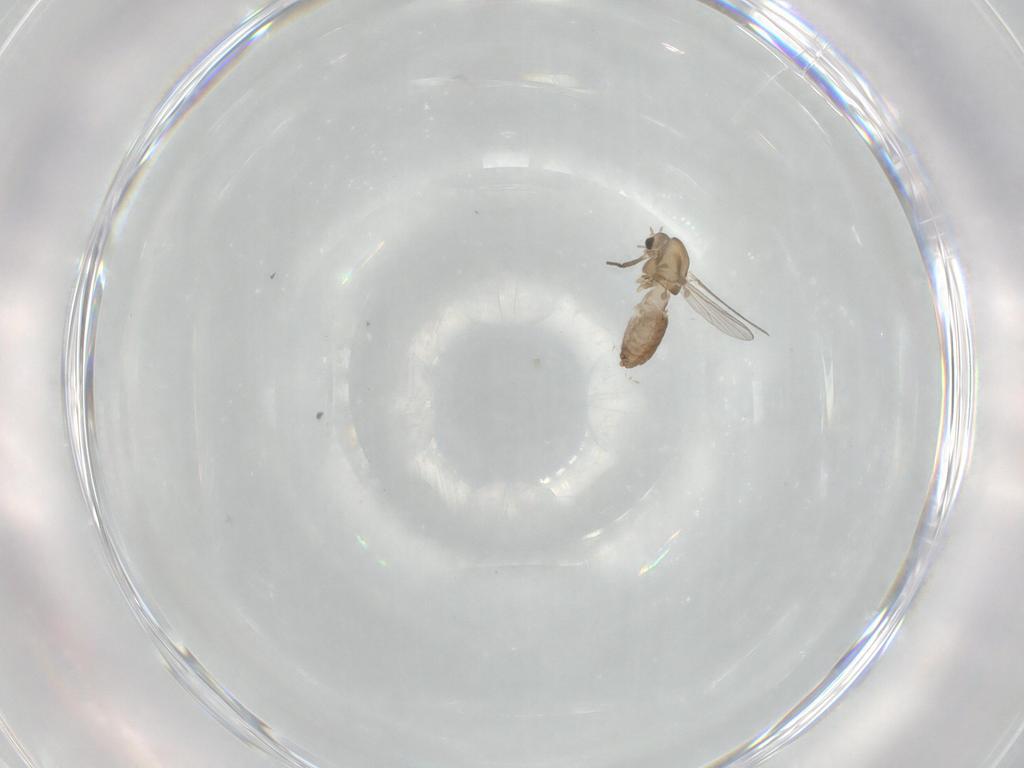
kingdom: Animalia
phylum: Arthropoda
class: Insecta
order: Diptera
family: Chironomidae
